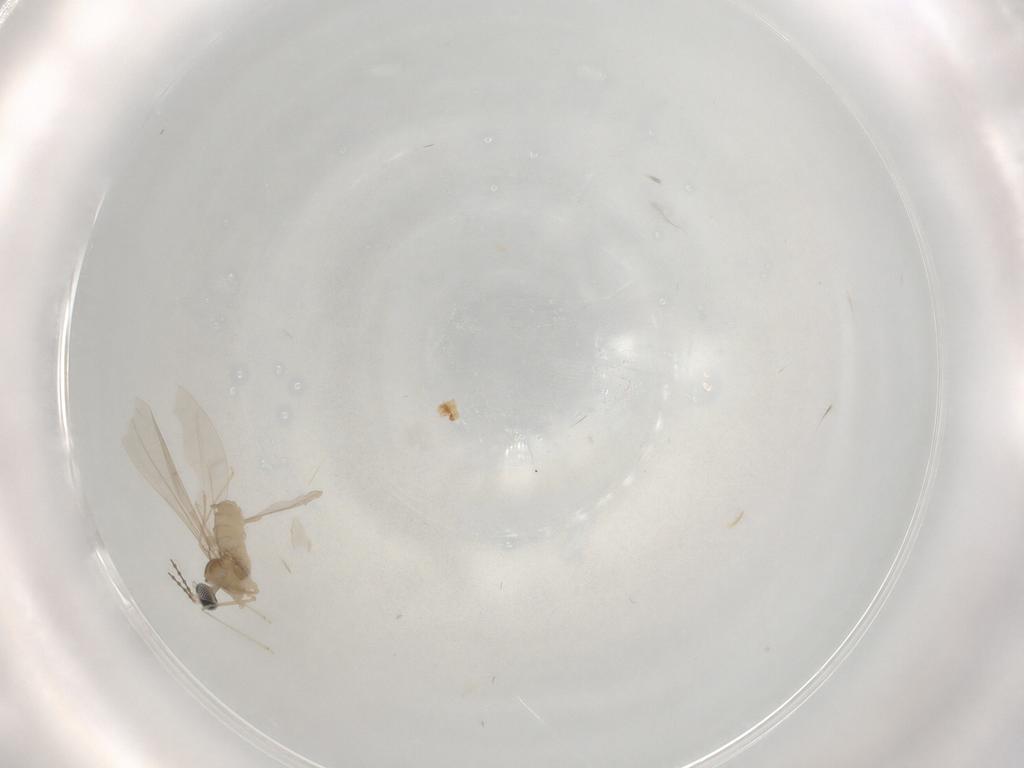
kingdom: Animalia
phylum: Arthropoda
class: Insecta
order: Diptera
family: Cecidomyiidae
